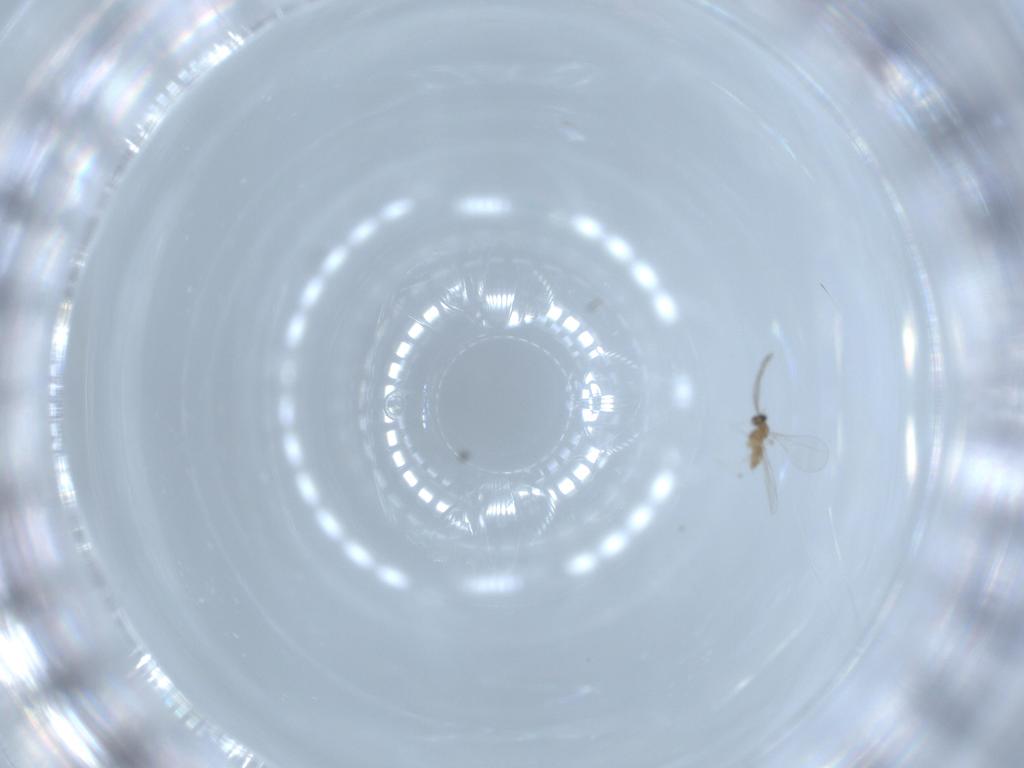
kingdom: Animalia
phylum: Arthropoda
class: Insecta
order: Diptera
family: Cecidomyiidae
